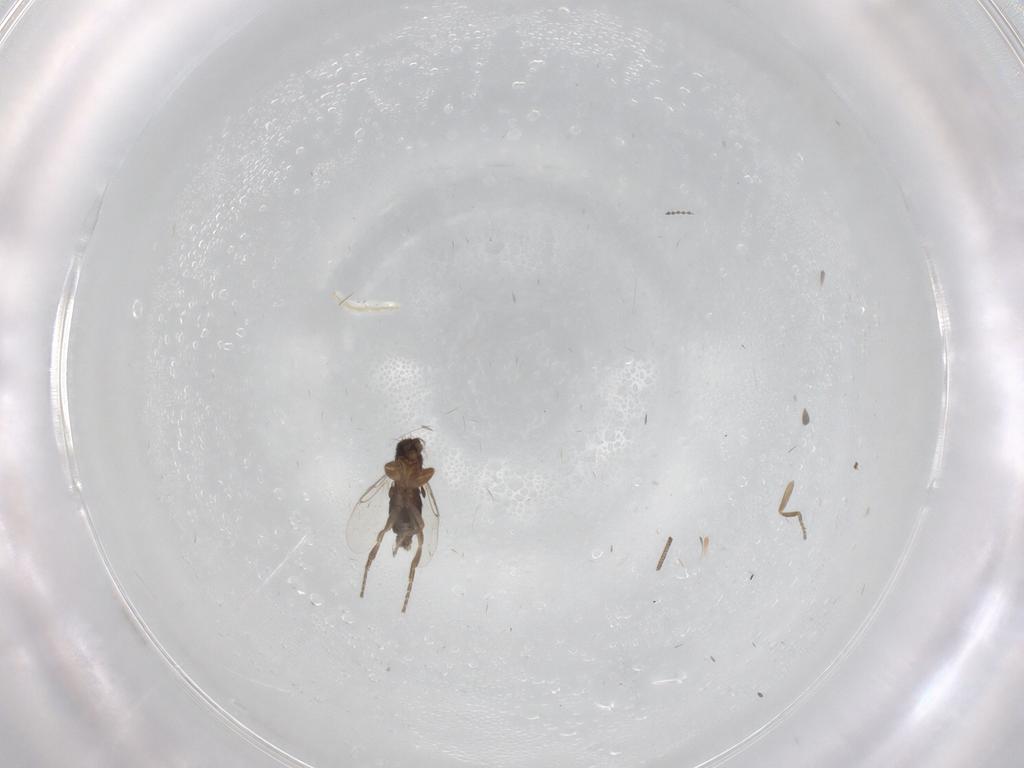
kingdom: Animalia
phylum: Arthropoda
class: Insecta
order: Diptera
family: Phoridae
